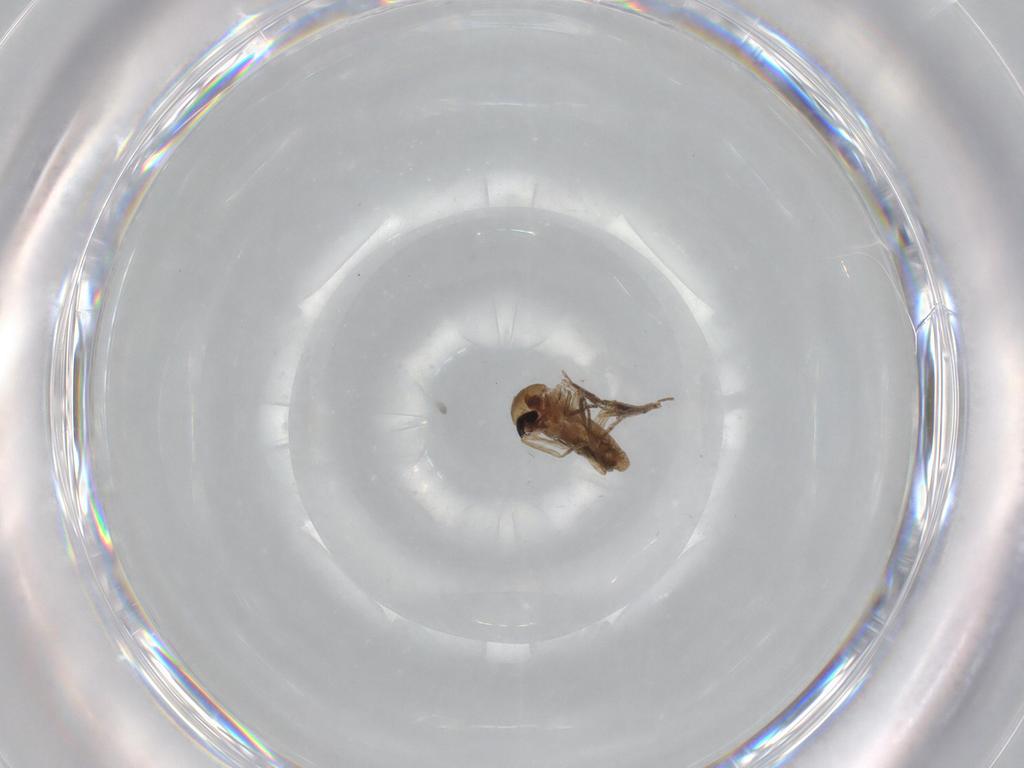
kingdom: Animalia
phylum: Arthropoda
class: Insecta
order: Diptera
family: Ceratopogonidae
